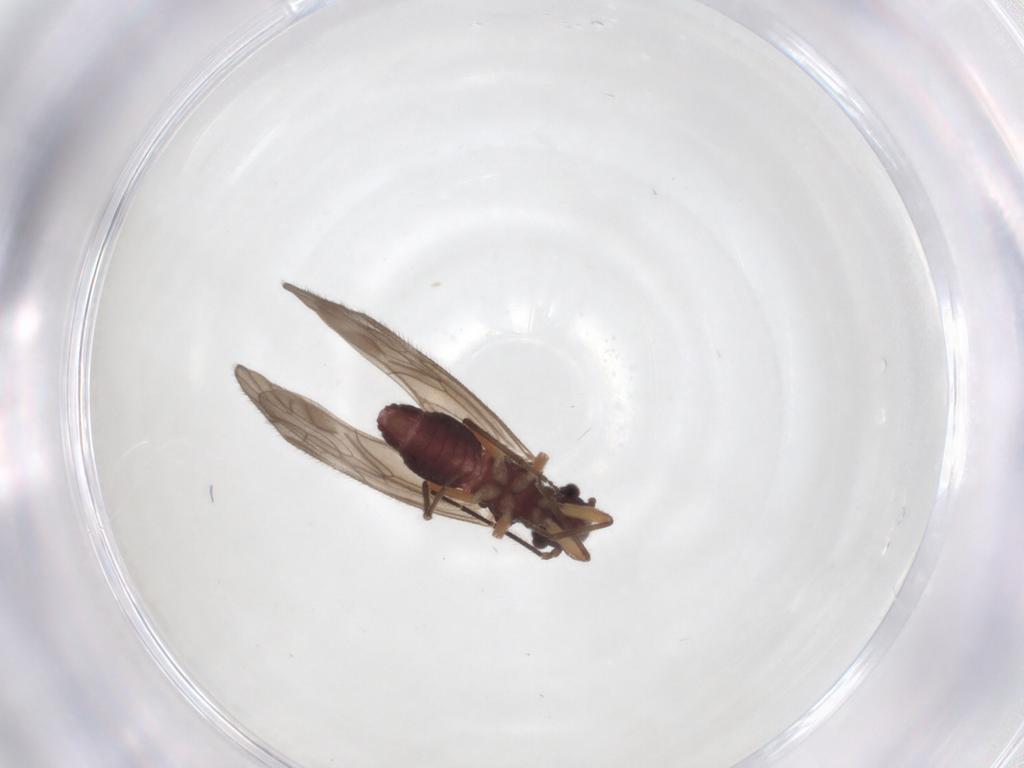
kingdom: Animalia
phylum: Arthropoda
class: Insecta
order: Psocodea
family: Trichopsocidae
